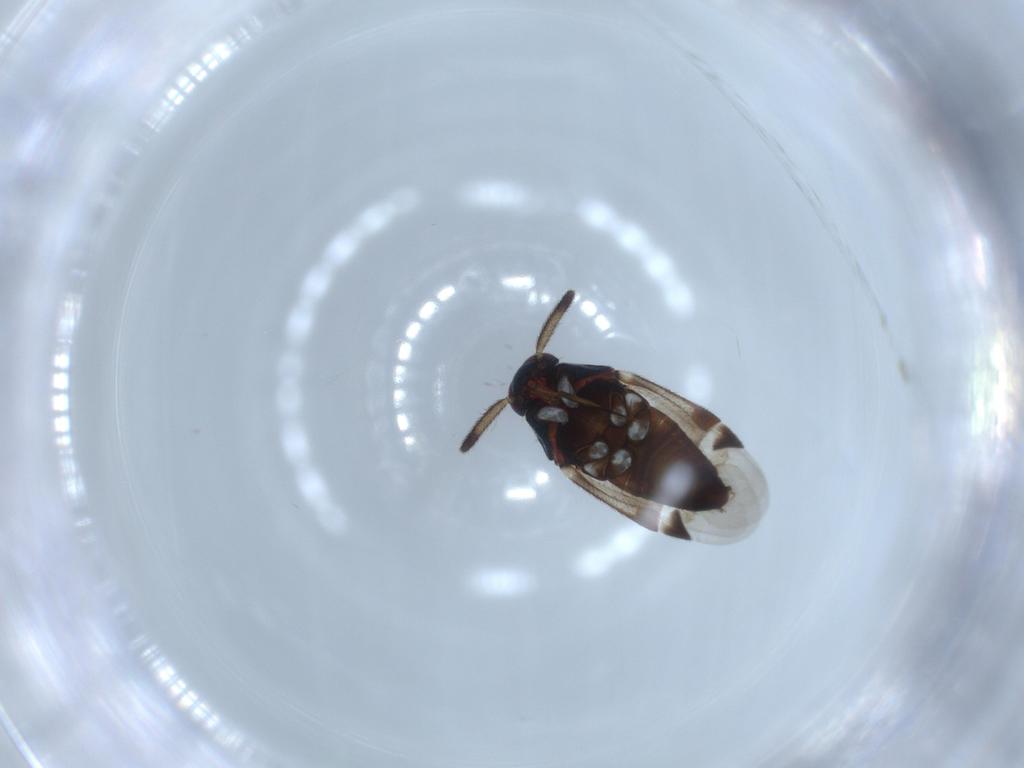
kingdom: Animalia
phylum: Arthropoda
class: Insecta
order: Hemiptera
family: Miridae
